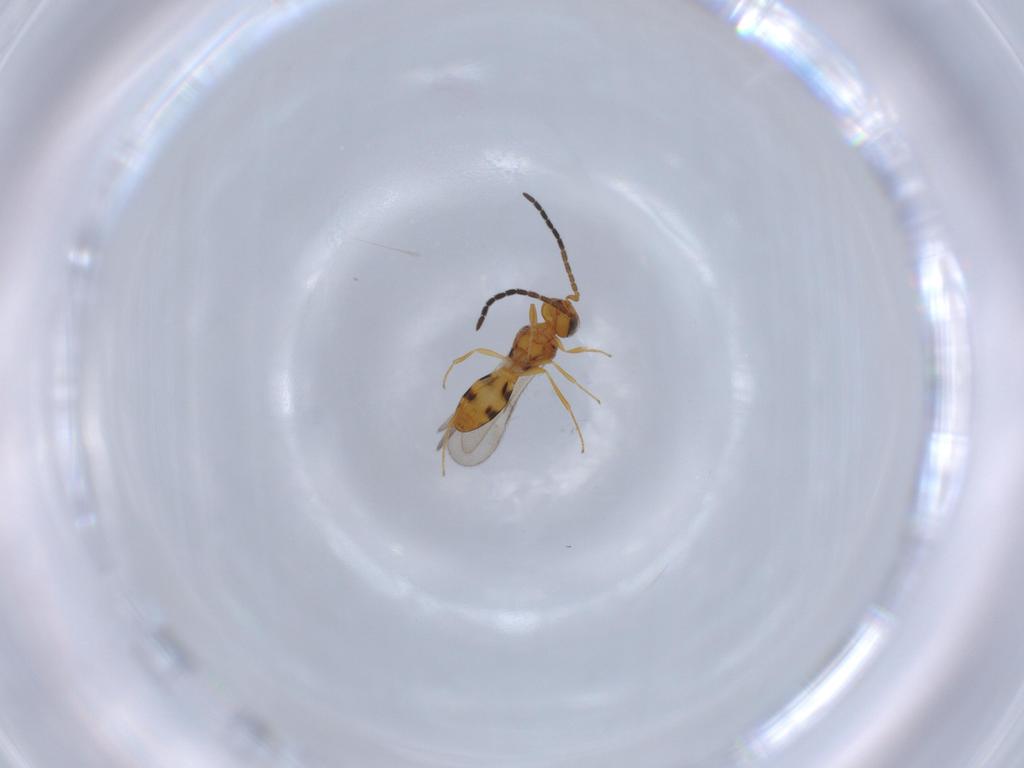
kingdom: Animalia
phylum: Arthropoda
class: Insecta
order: Hymenoptera
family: Scelionidae
